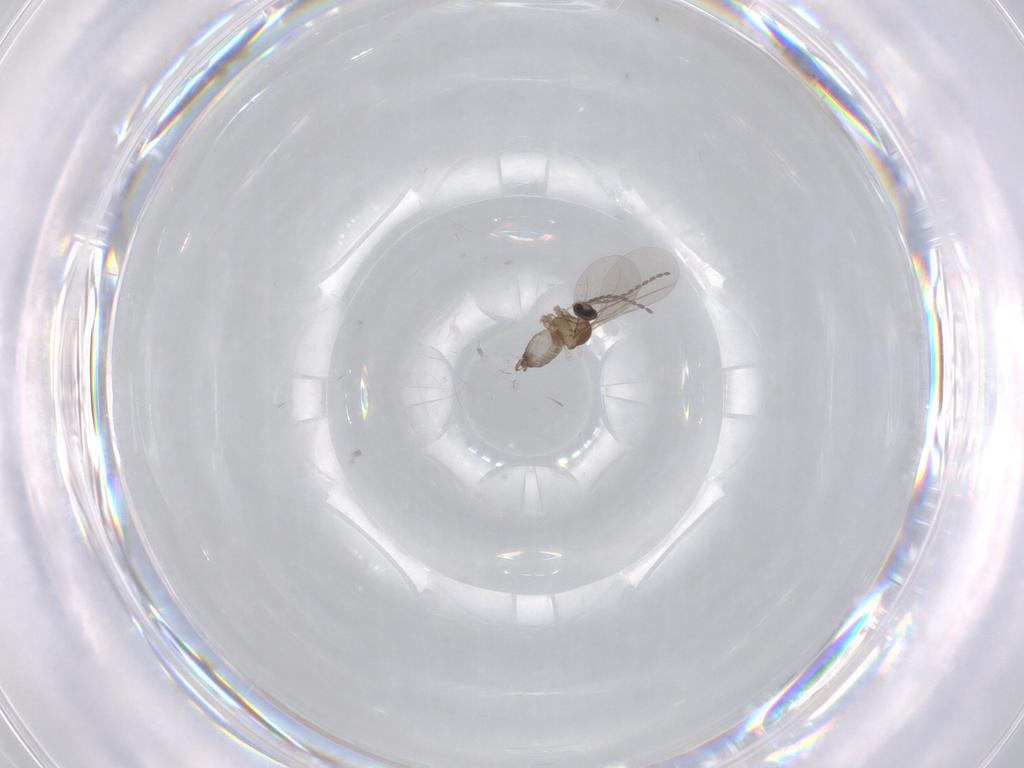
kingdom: Animalia
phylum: Arthropoda
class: Insecta
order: Diptera
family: Cecidomyiidae
